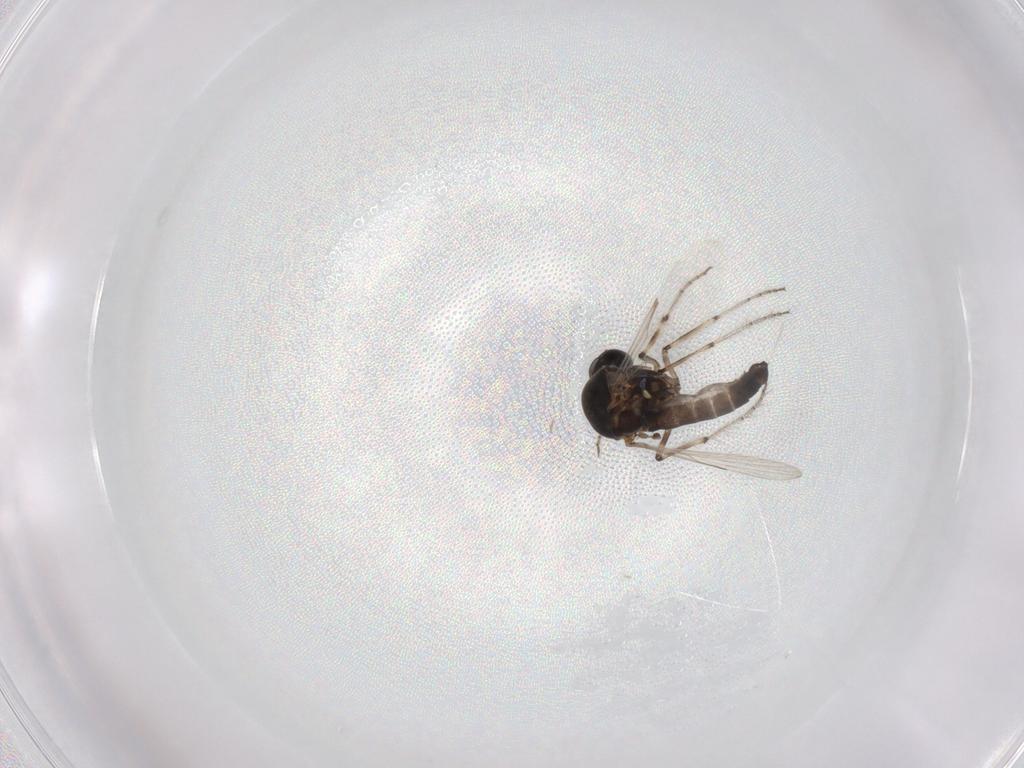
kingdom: Animalia
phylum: Arthropoda
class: Insecta
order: Diptera
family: Ceratopogonidae
